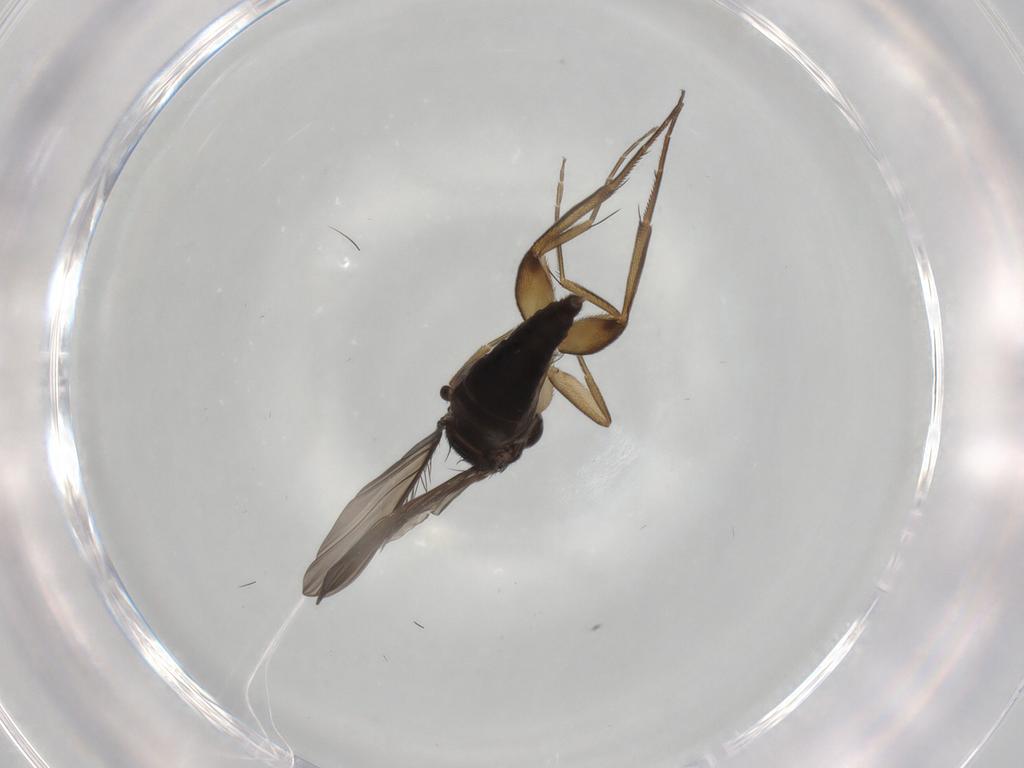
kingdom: Animalia
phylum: Arthropoda
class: Insecta
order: Diptera
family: Phoridae
